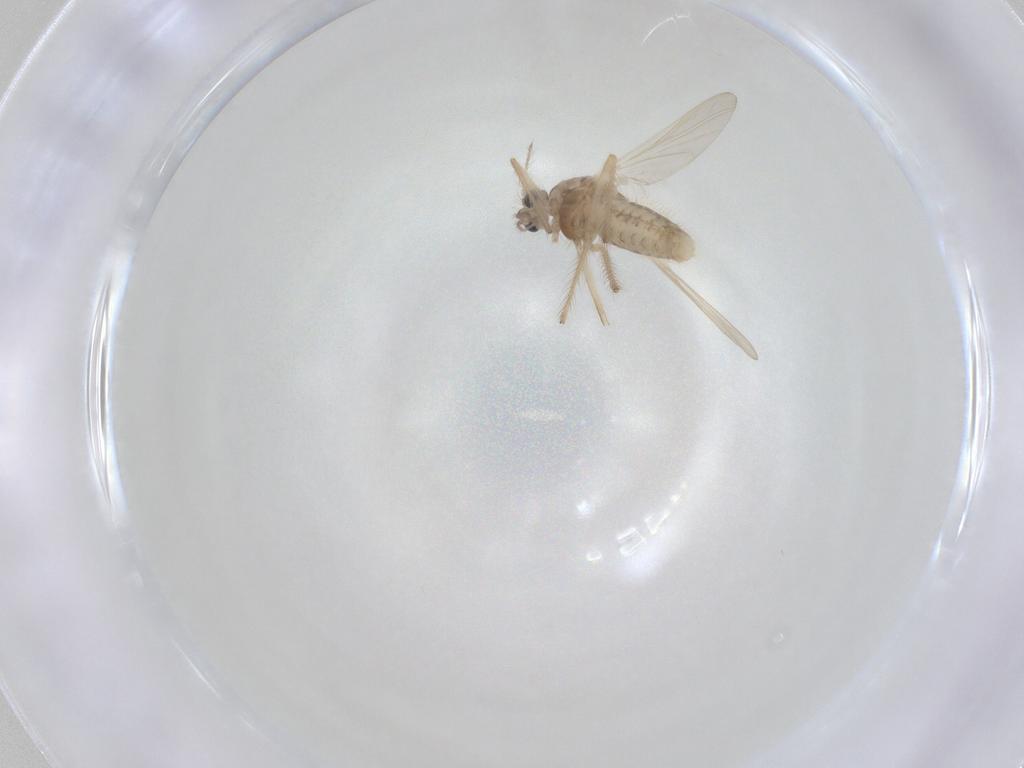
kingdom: Animalia
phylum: Arthropoda
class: Insecta
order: Diptera
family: Chironomidae
